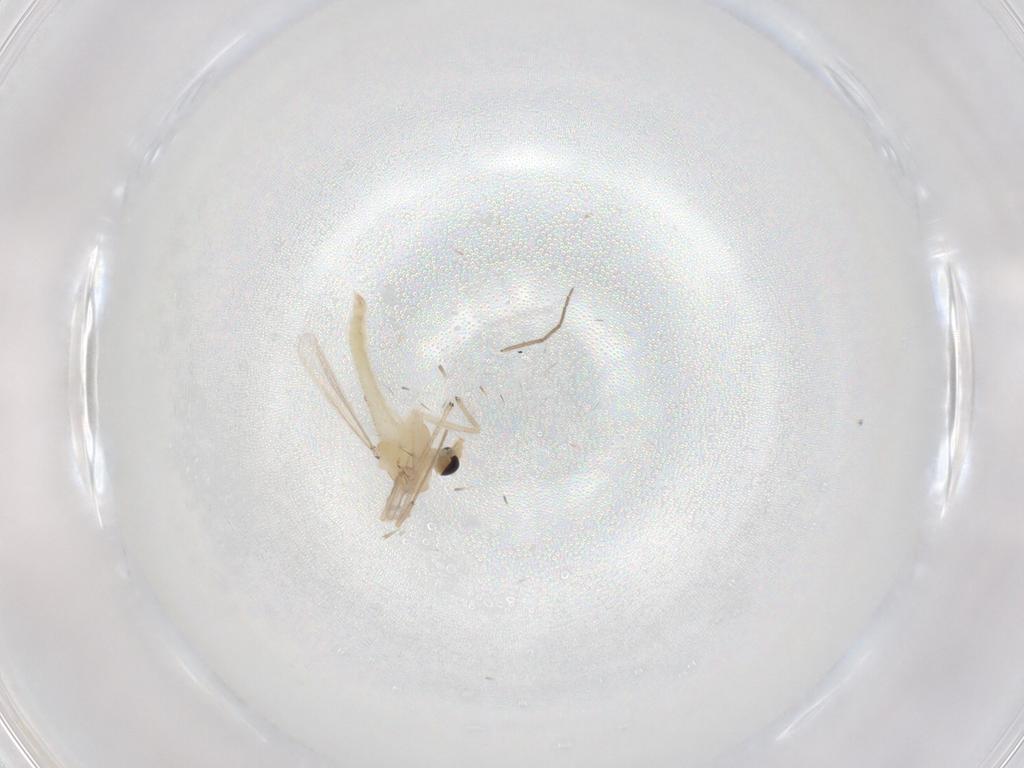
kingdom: Animalia
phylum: Arthropoda
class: Insecta
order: Diptera
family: Chironomidae
